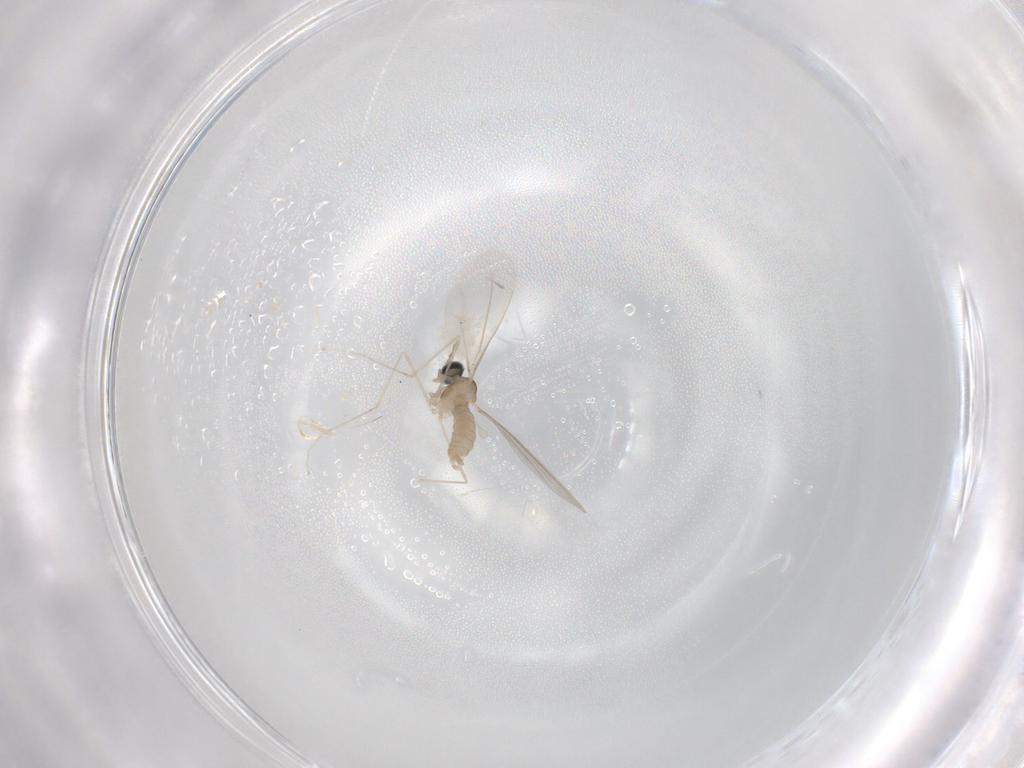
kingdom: Animalia
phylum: Arthropoda
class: Insecta
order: Diptera
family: Cecidomyiidae
